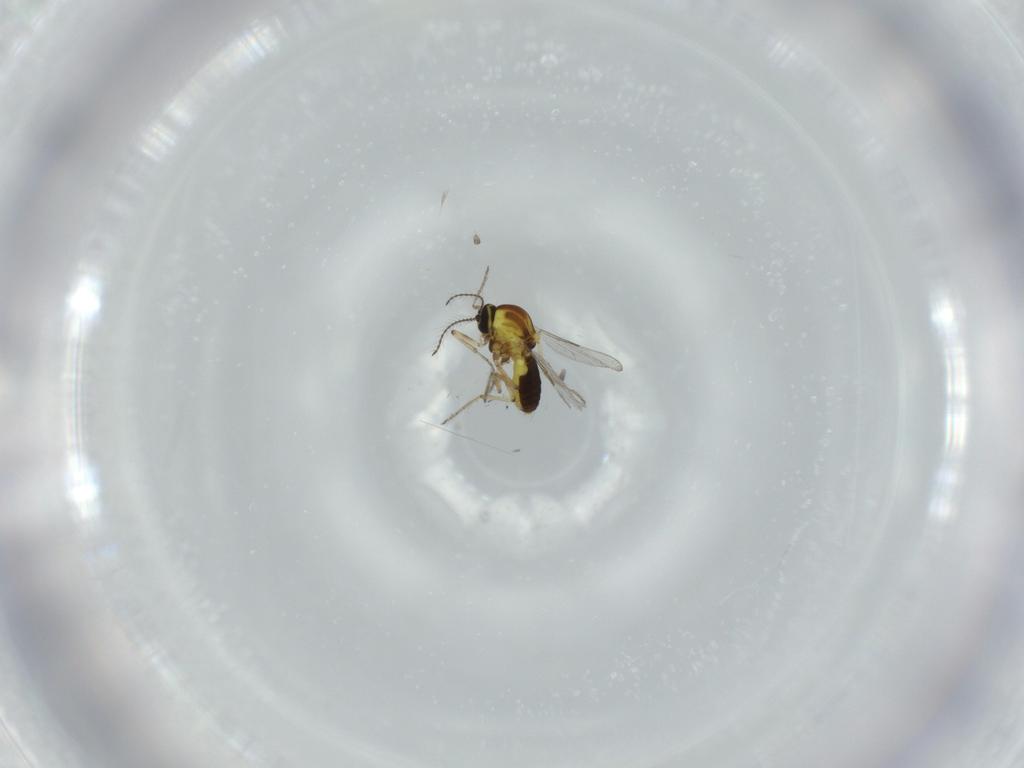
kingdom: Animalia
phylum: Arthropoda
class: Insecta
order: Diptera
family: Ceratopogonidae
